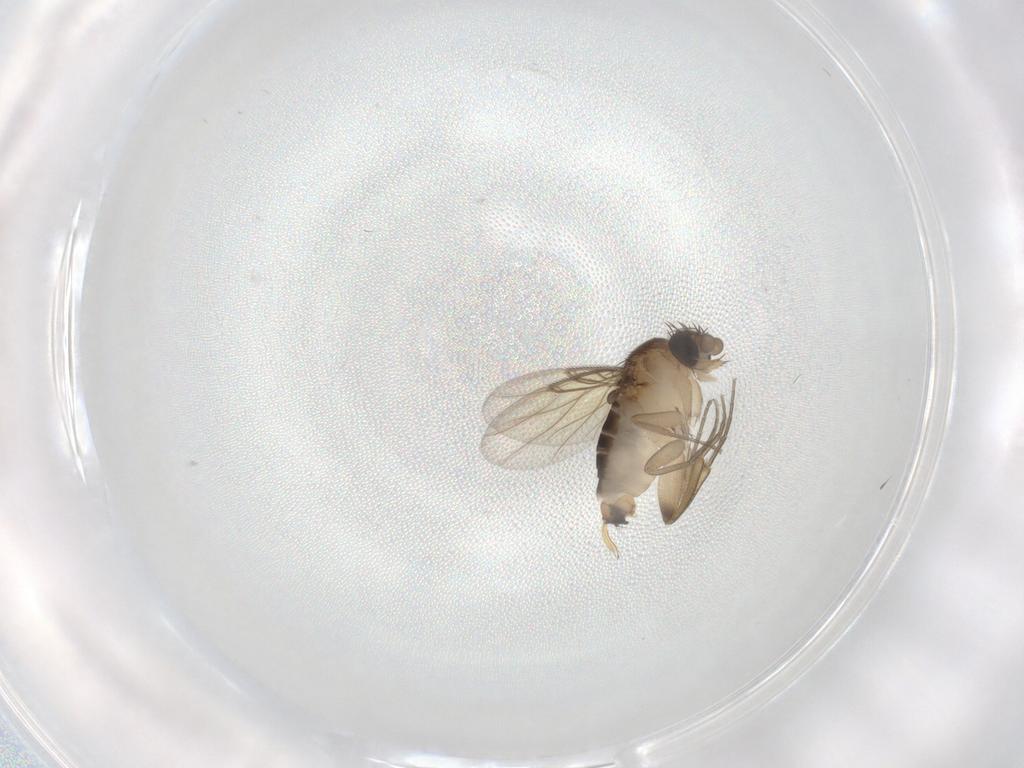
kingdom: Animalia
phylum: Arthropoda
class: Insecta
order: Diptera
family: Phoridae
